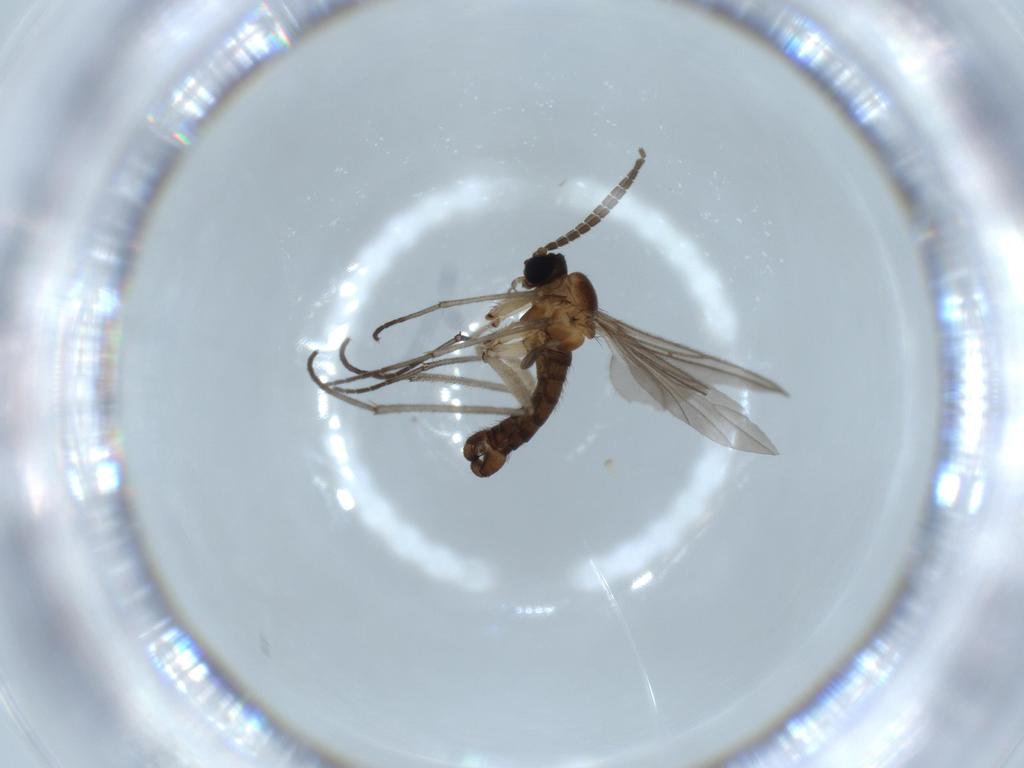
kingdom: Animalia
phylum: Arthropoda
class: Insecta
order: Diptera
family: Sciaridae
